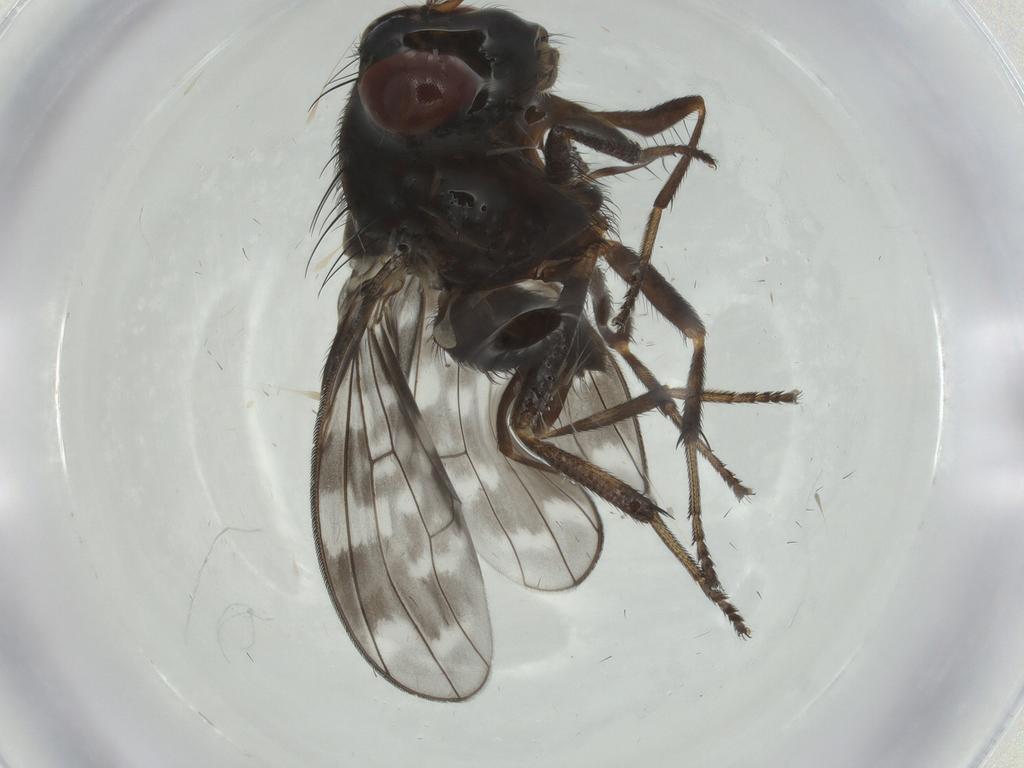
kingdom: Animalia
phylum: Arthropoda
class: Insecta
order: Diptera
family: Lauxaniidae
